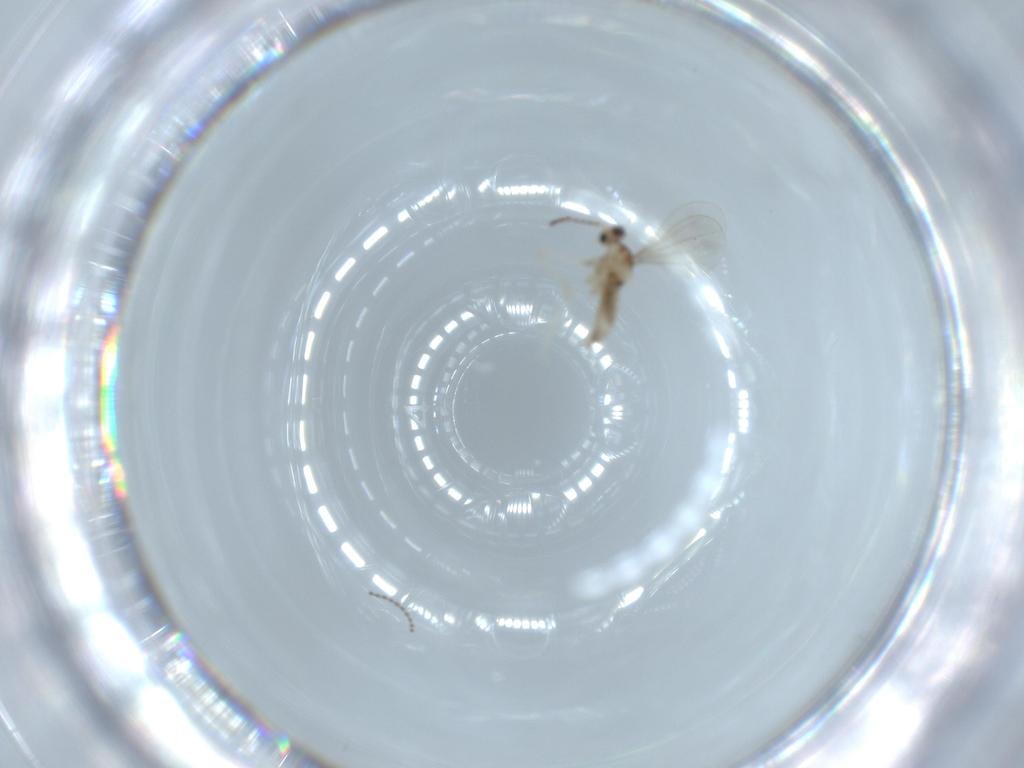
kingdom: Animalia
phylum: Arthropoda
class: Insecta
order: Diptera
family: Cecidomyiidae
